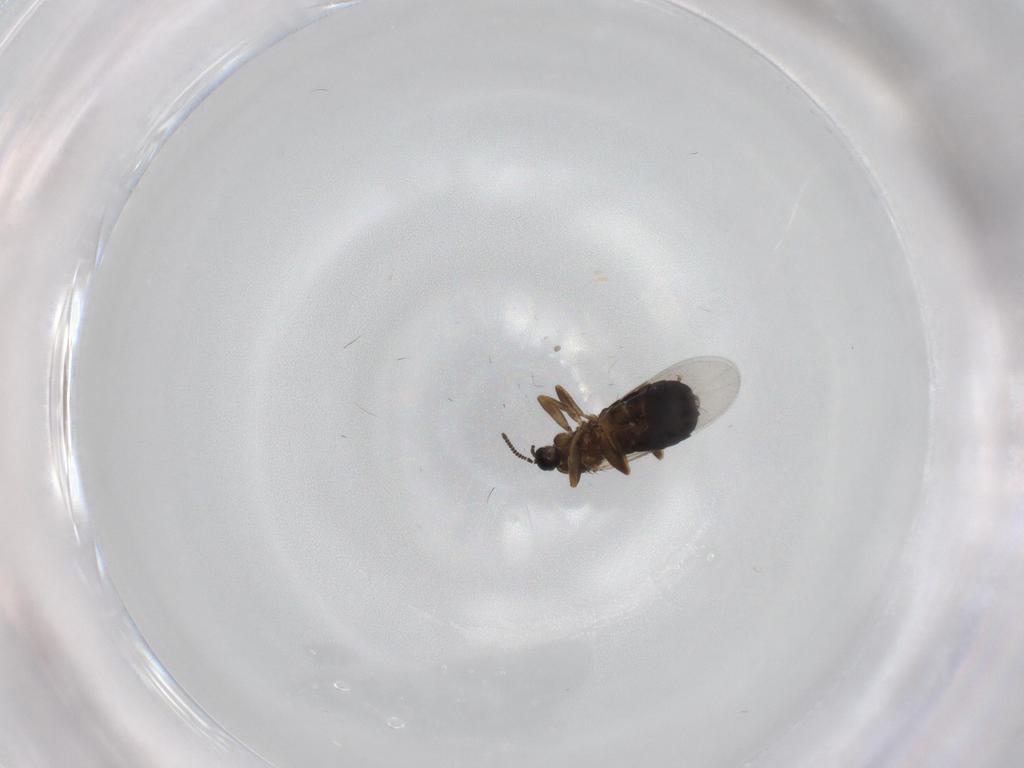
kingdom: Animalia
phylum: Arthropoda
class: Insecta
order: Diptera
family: Scatopsidae
